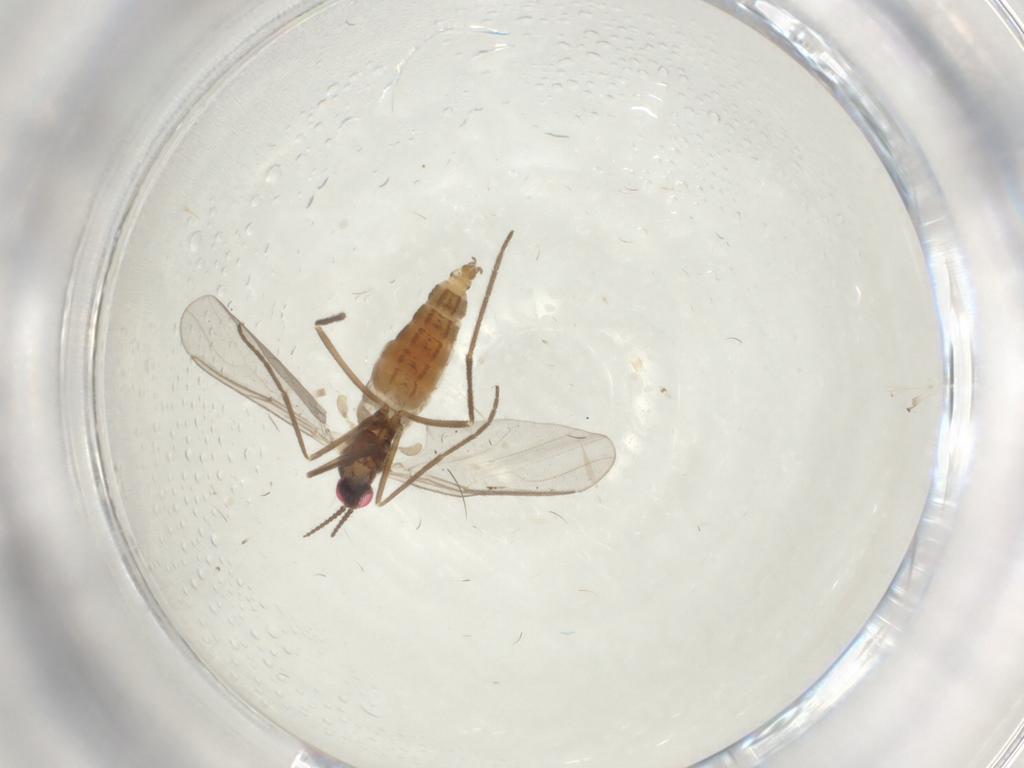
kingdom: Animalia
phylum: Arthropoda
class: Insecta
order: Diptera
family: Cecidomyiidae
